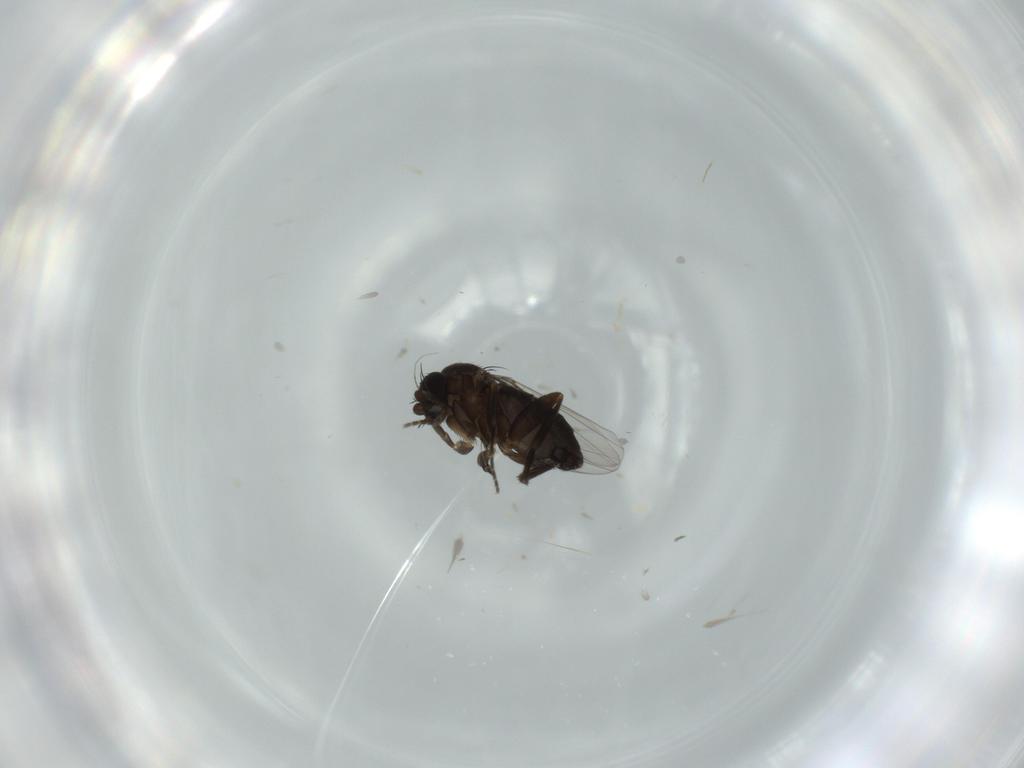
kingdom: Animalia
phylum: Arthropoda
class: Insecta
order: Diptera
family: Phoridae
